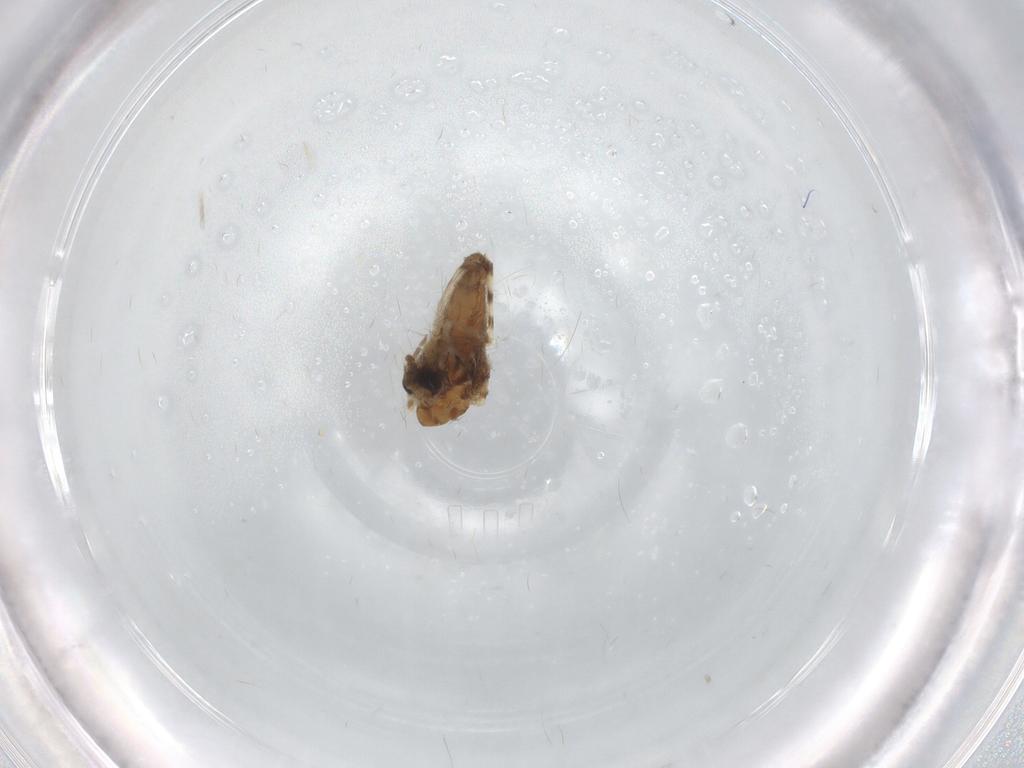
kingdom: Animalia
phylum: Arthropoda
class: Insecta
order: Diptera
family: Chironomidae
